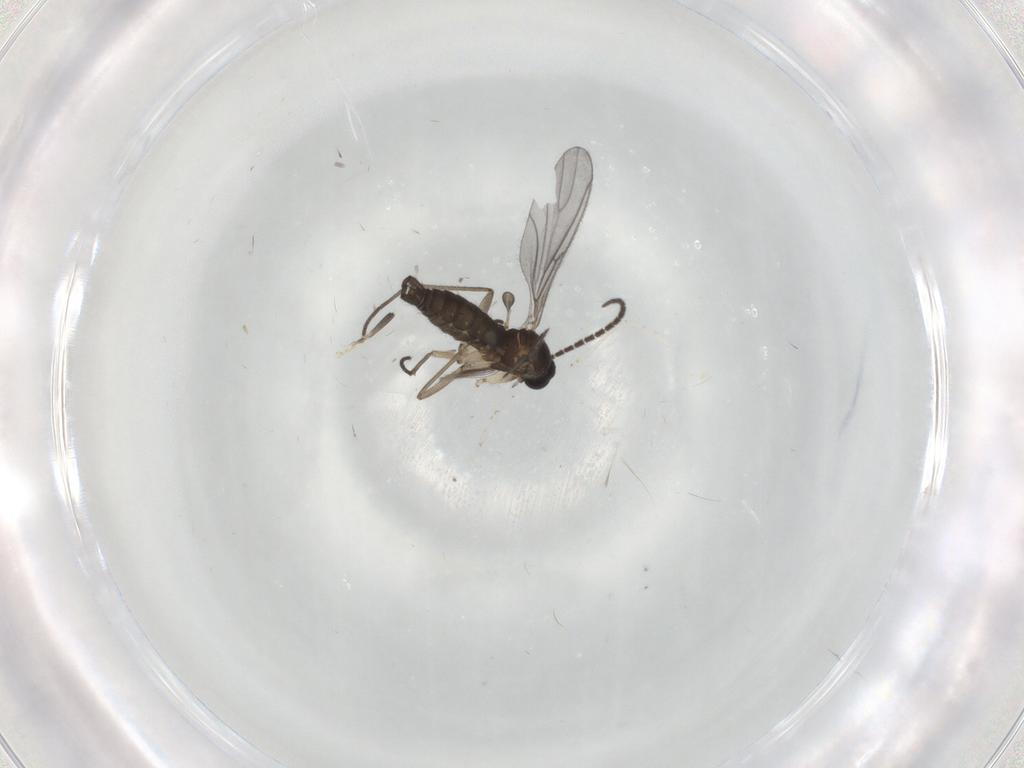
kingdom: Animalia
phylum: Arthropoda
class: Insecta
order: Diptera
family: Sciaridae
